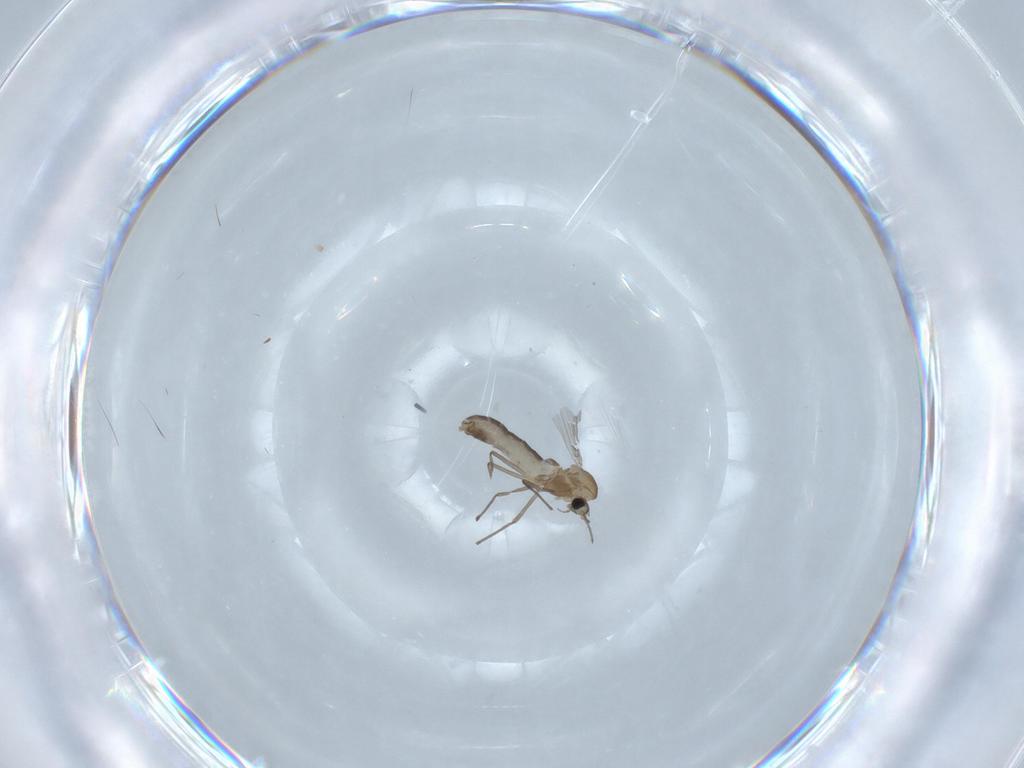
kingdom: Animalia
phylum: Arthropoda
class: Insecta
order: Diptera
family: Chironomidae
